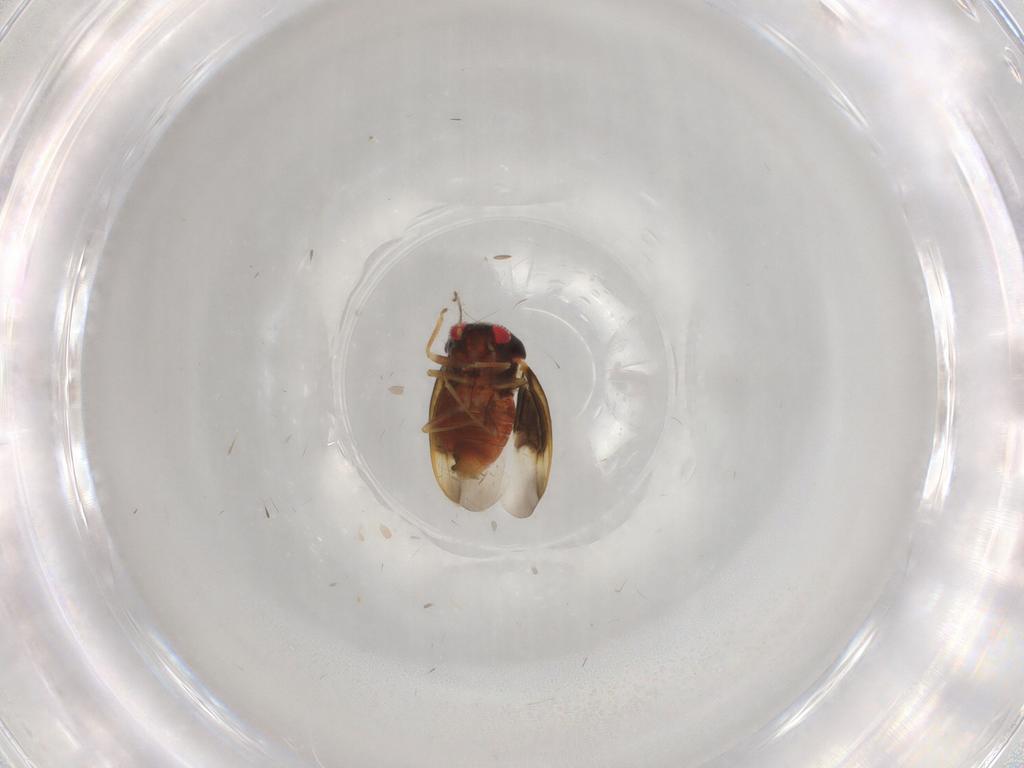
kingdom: Animalia
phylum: Arthropoda
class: Insecta
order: Hemiptera
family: Schizopteridae
